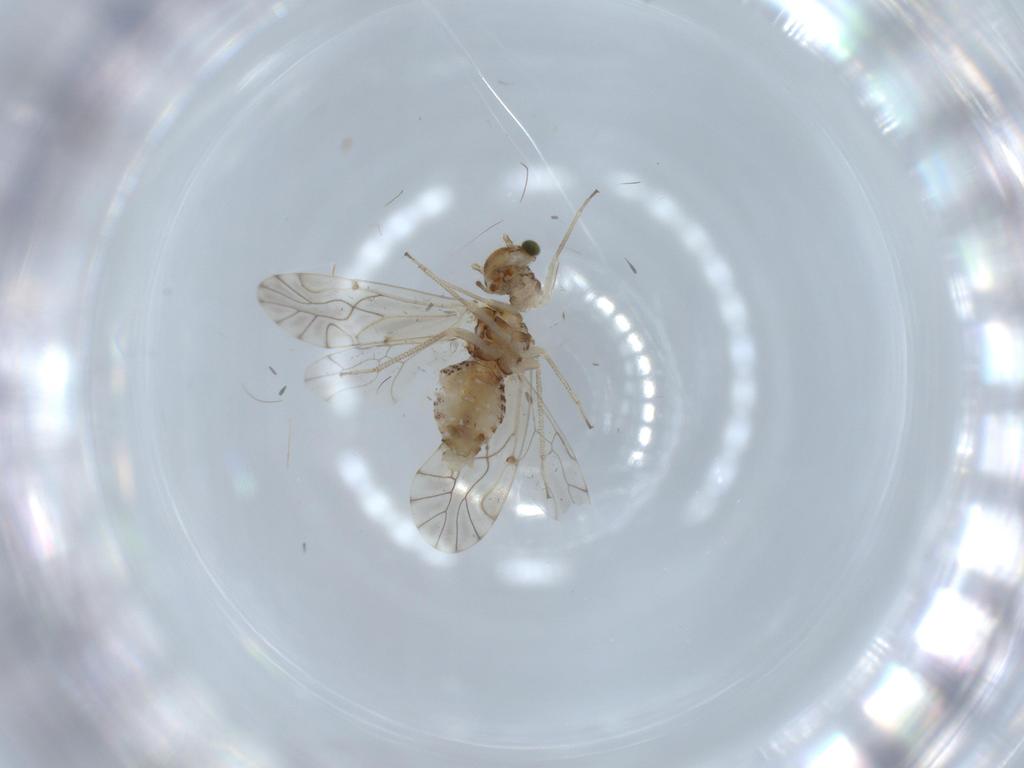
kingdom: Animalia
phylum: Arthropoda
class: Insecta
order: Psocodea
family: Lachesillidae
